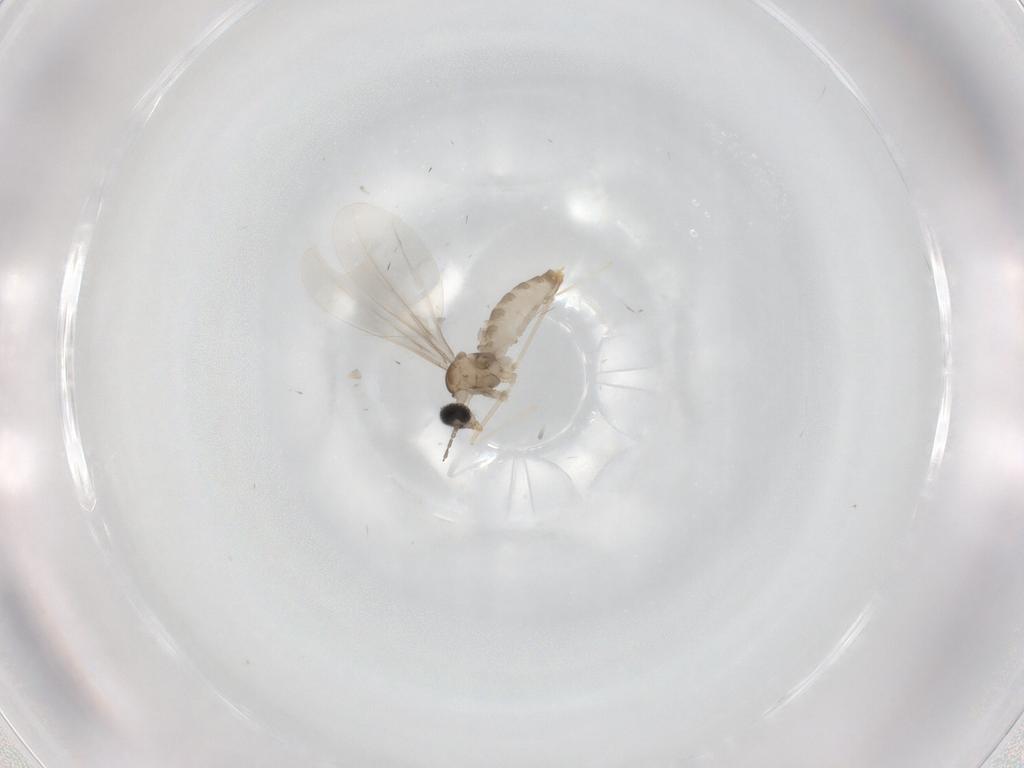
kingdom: Animalia
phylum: Arthropoda
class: Insecta
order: Diptera
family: Cecidomyiidae
